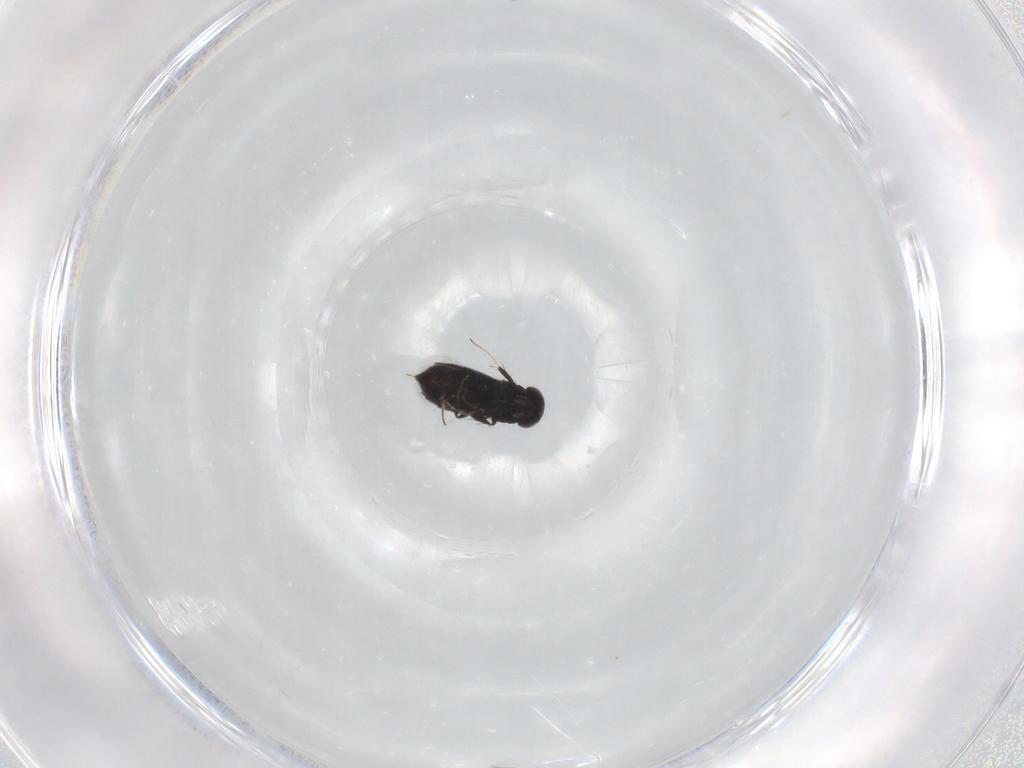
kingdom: Animalia
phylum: Arthropoda
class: Insecta
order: Hymenoptera
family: Signiphoridae
